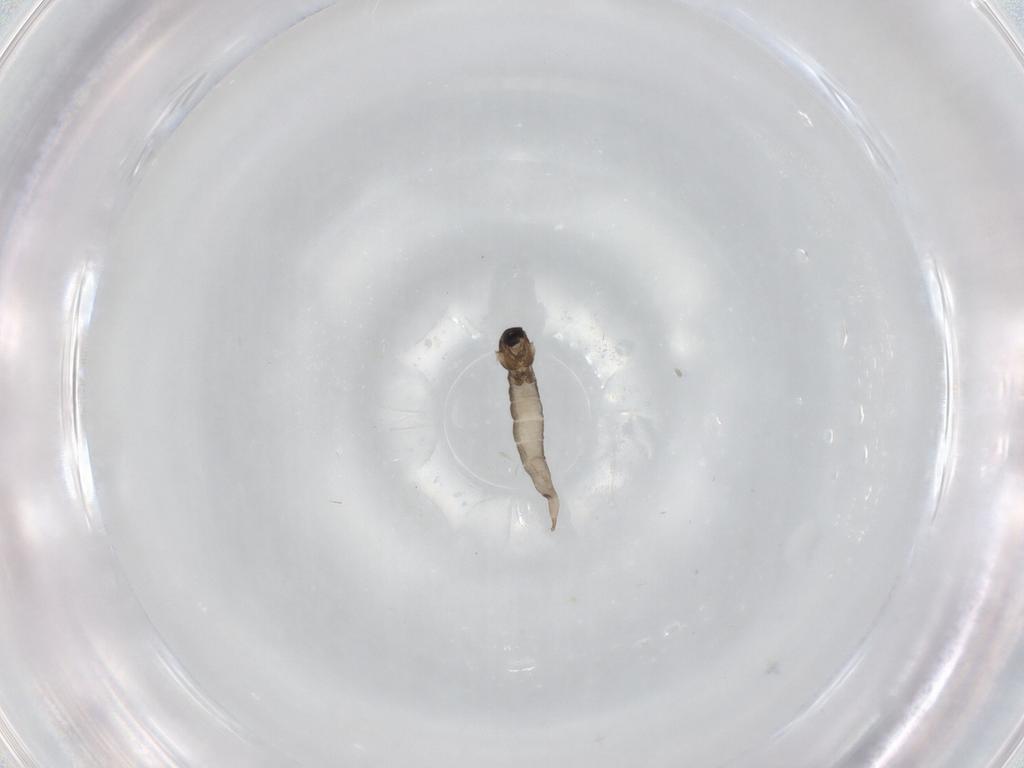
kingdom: Animalia
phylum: Arthropoda
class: Insecta
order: Diptera
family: Cecidomyiidae
